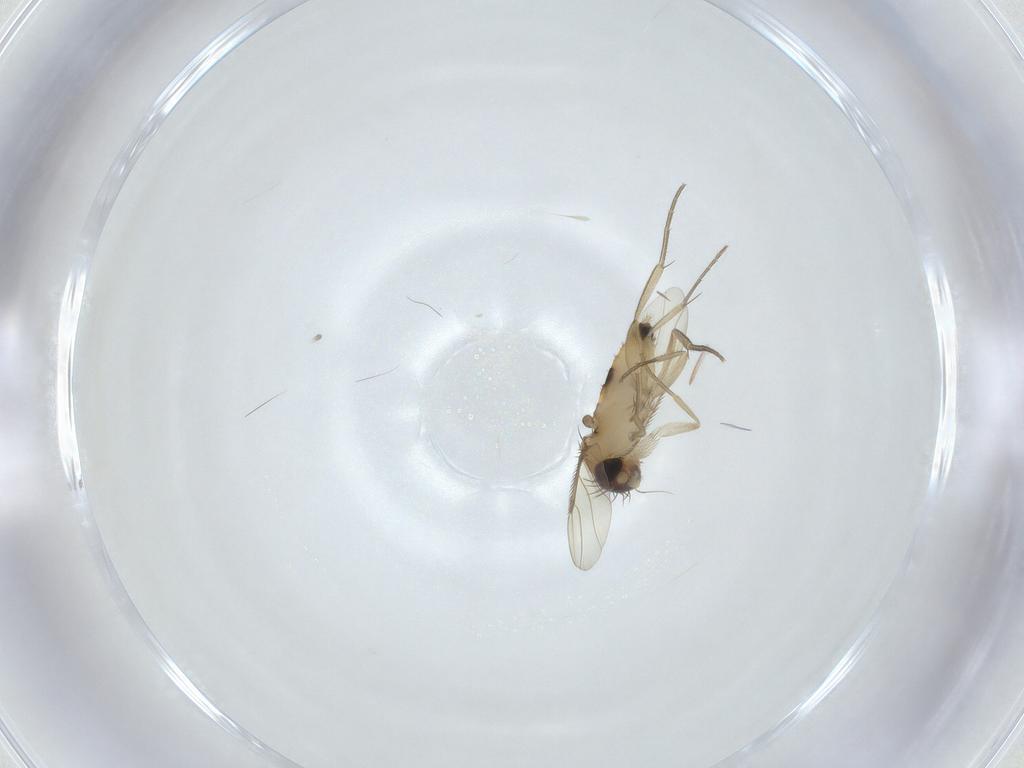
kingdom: Animalia
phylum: Arthropoda
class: Insecta
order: Diptera
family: Phoridae
